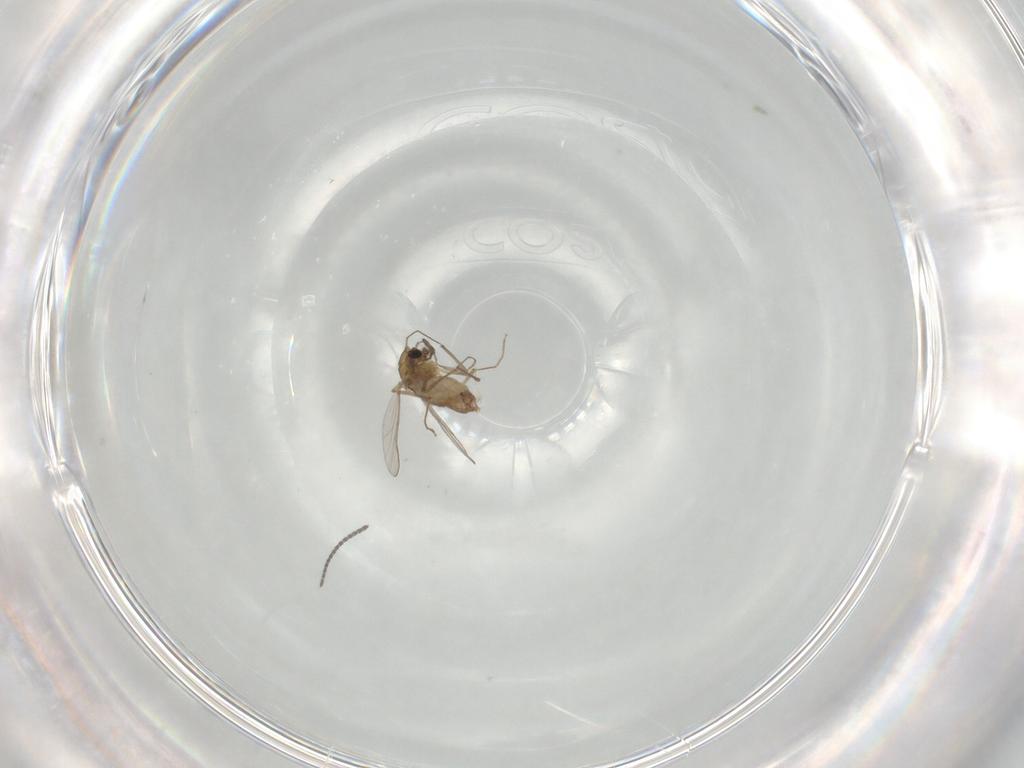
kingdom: Animalia
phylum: Arthropoda
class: Insecta
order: Diptera
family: Chironomidae
